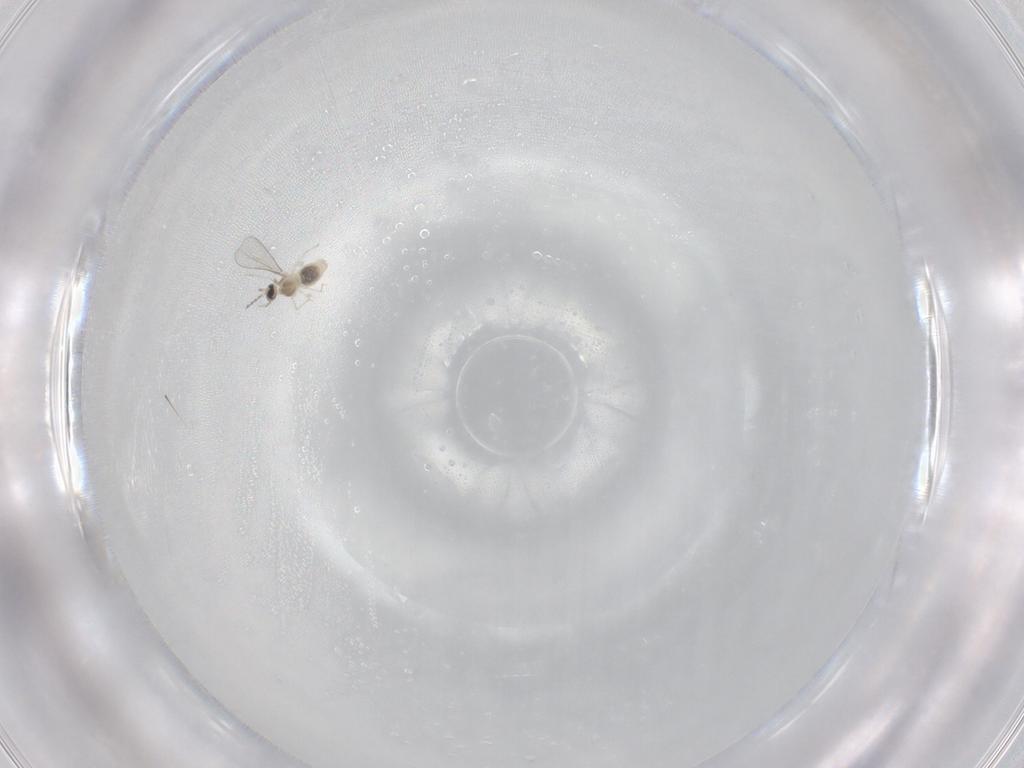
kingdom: Animalia
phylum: Arthropoda
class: Insecta
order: Diptera
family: Cecidomyiidae
